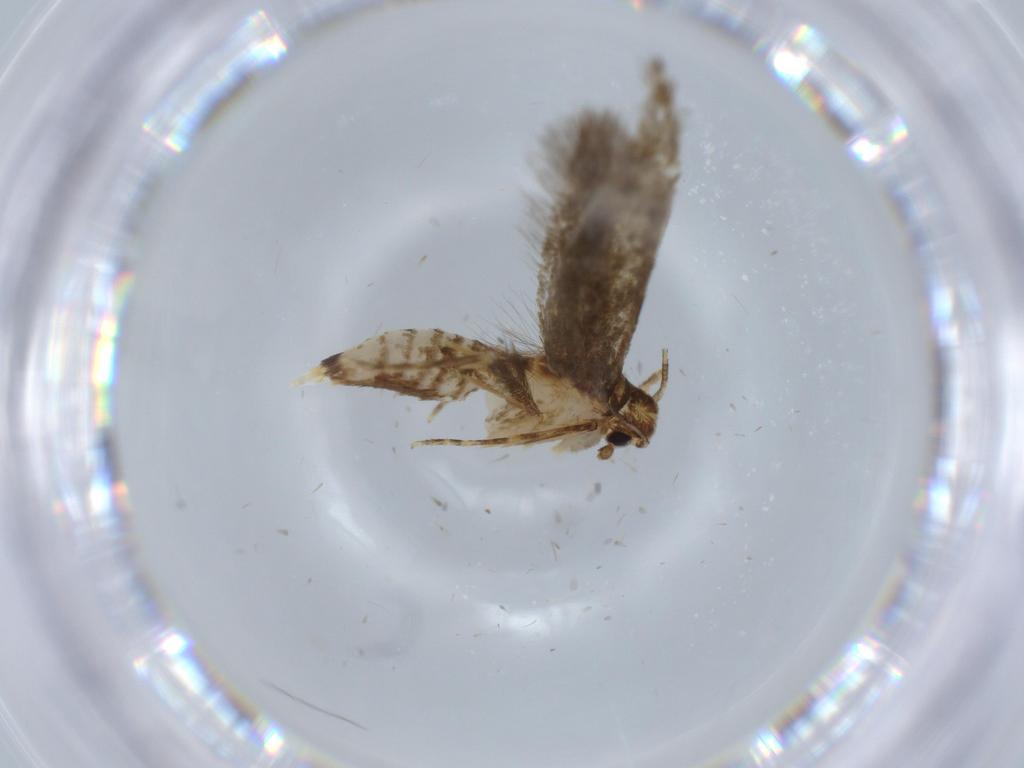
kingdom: Animalia
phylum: Arthropoda
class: Insecta
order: Lepidoptera
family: Tineidae
